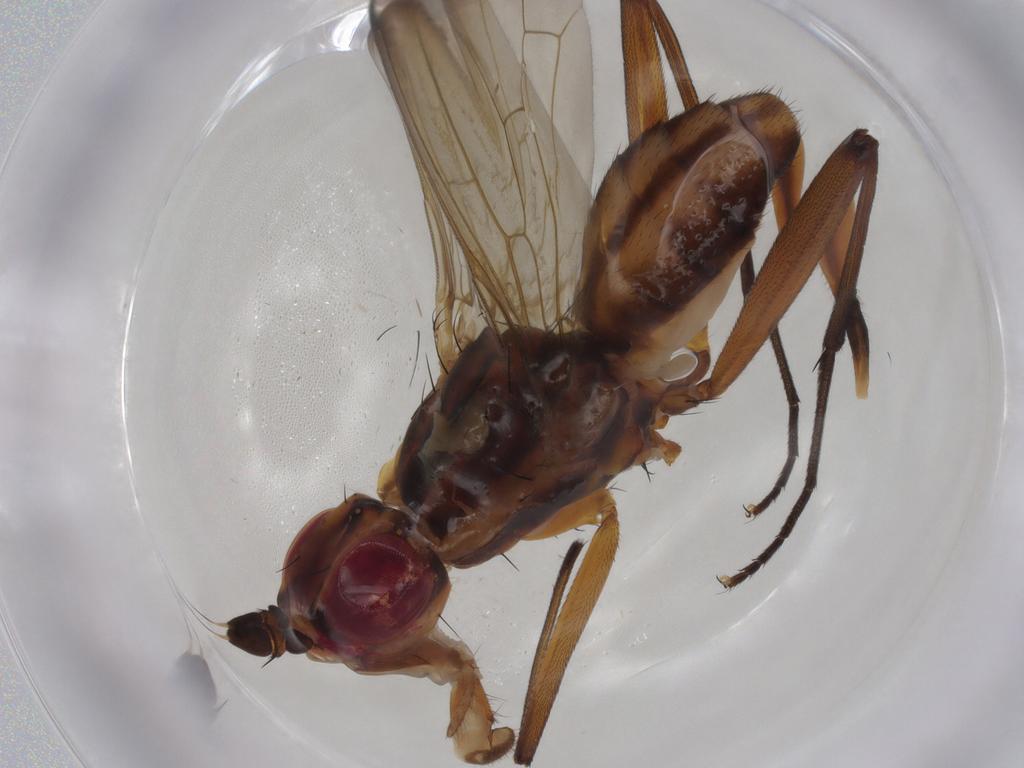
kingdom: Animalia
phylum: Arthropoda
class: Insecta
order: Diptera
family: Neriidae
